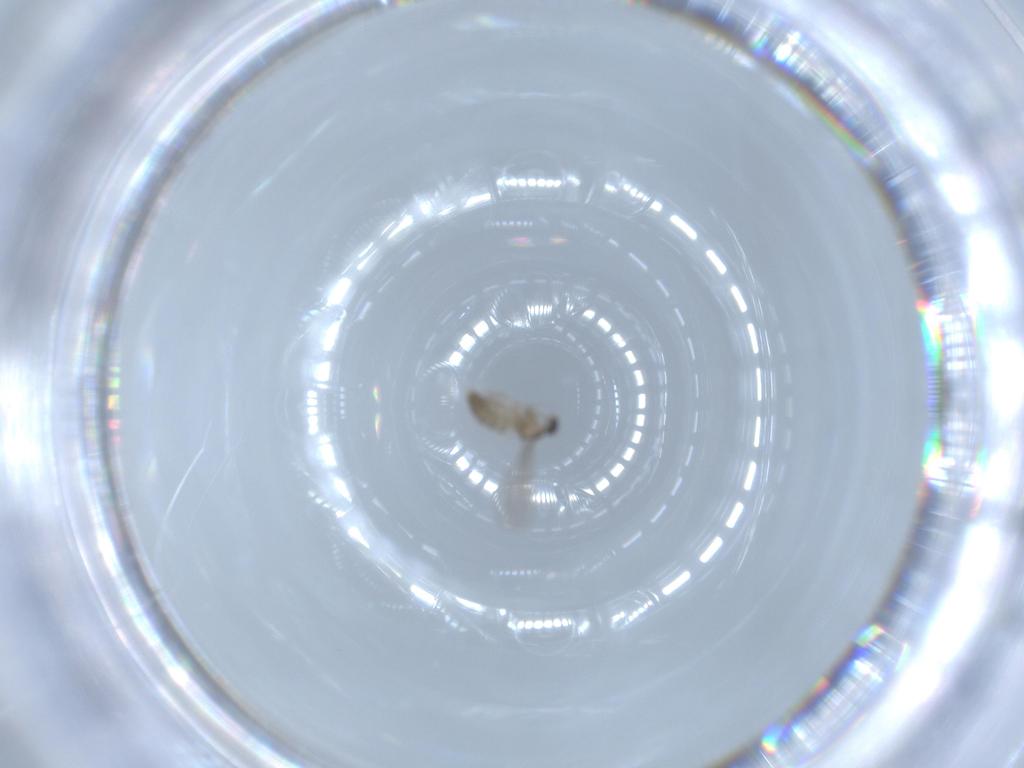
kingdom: Animalia
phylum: Arthropoda
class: Insecta
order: Diptera
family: Cecidomyiidae
